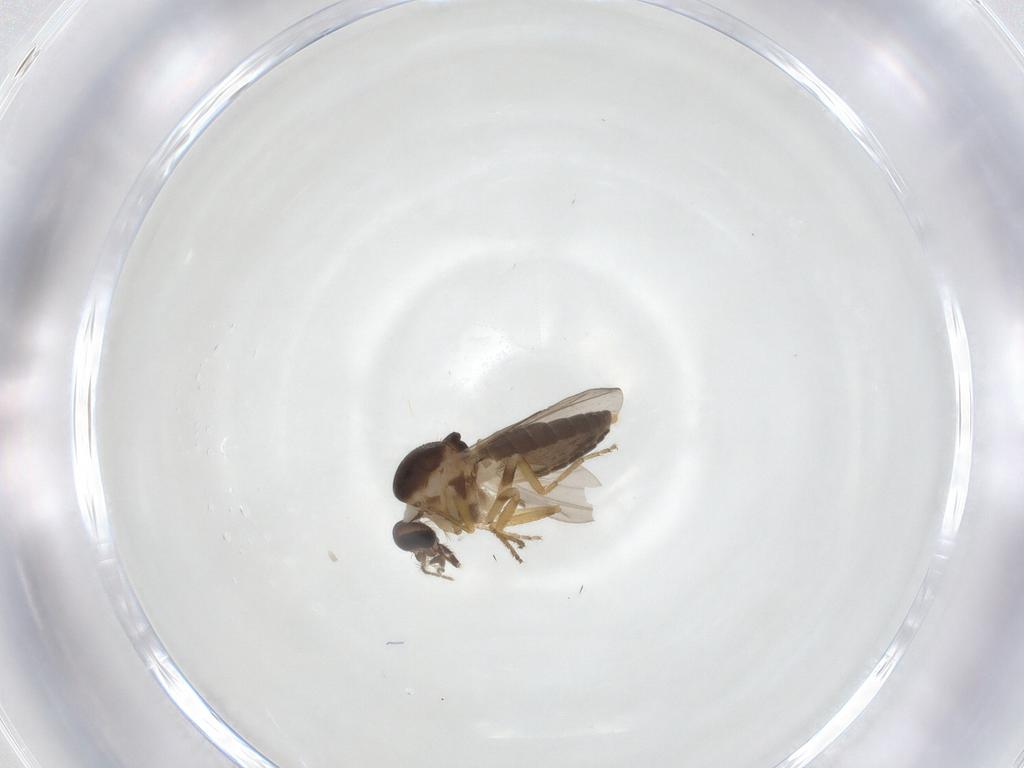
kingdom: Animalia
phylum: Arthropoda
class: Insecta
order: Diptera
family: Ceratopogonidae
